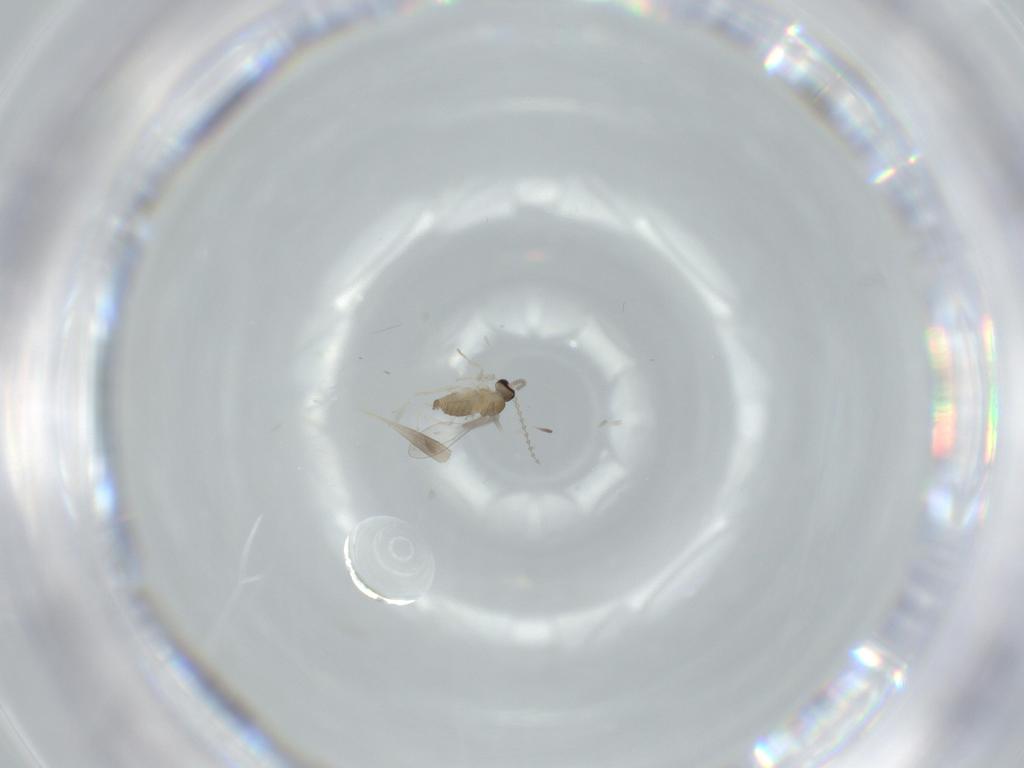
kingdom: Animalia
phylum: Arthropoda
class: Insecta
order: Diptera
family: Cecidomyiidae
